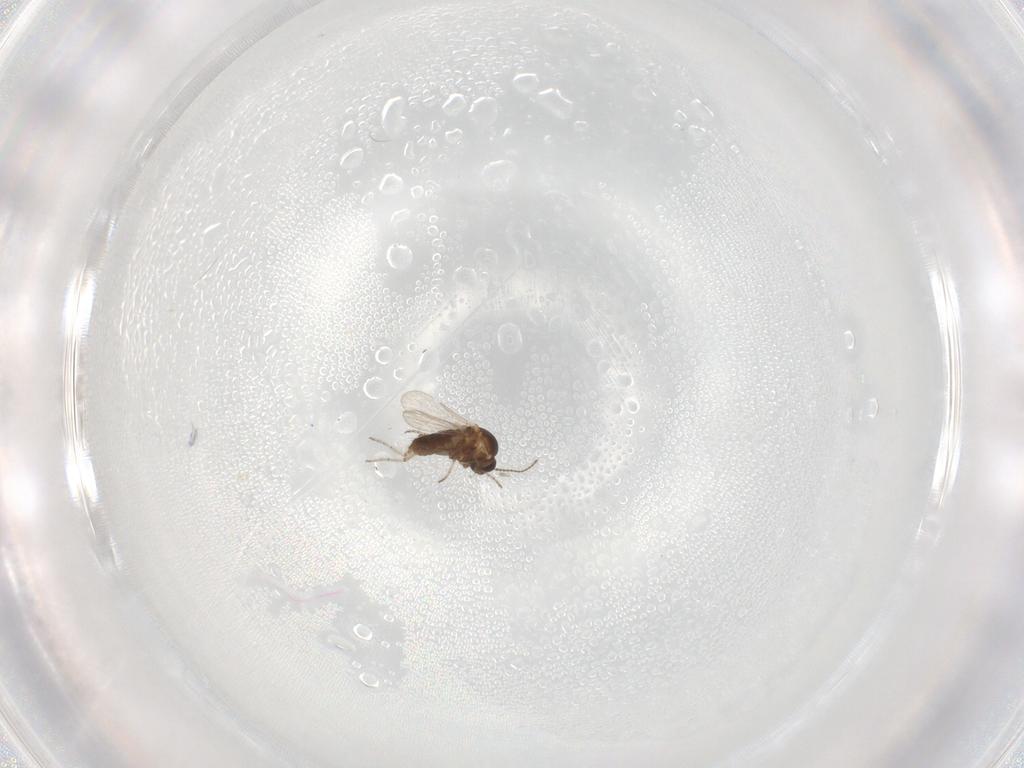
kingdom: Animalia
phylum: Arthropoda
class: Insecta
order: Diptera
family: Ceratopogonidae
